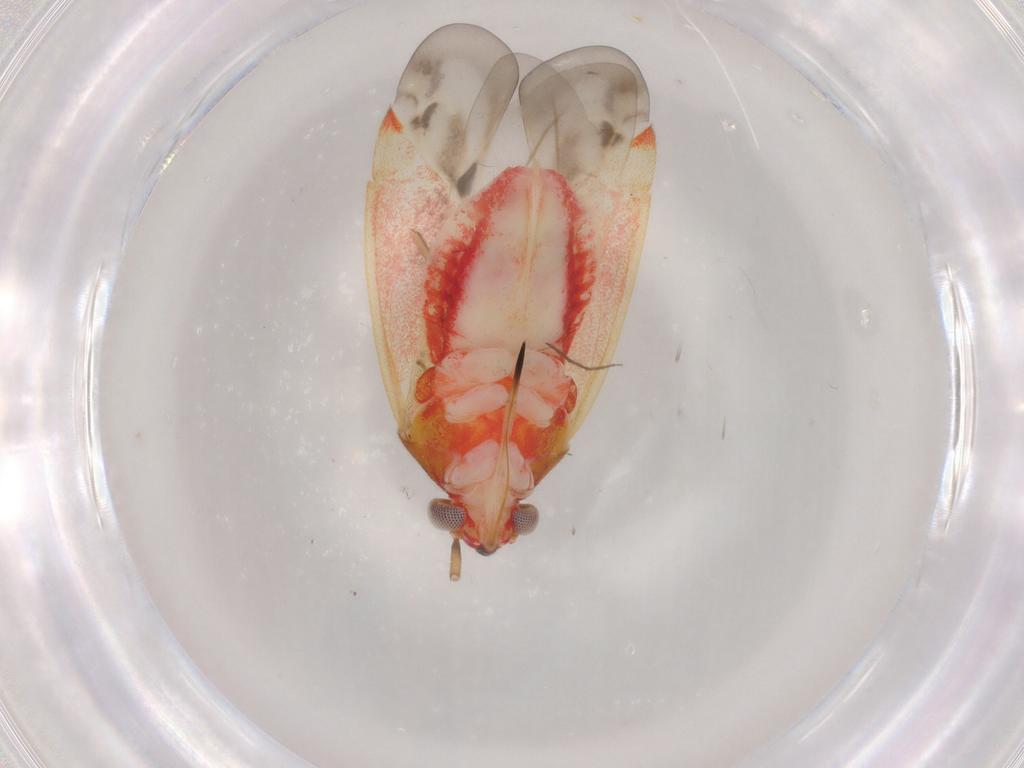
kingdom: Animalia
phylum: Arthropoda
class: Insecta
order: Hemiptera
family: Miridae
